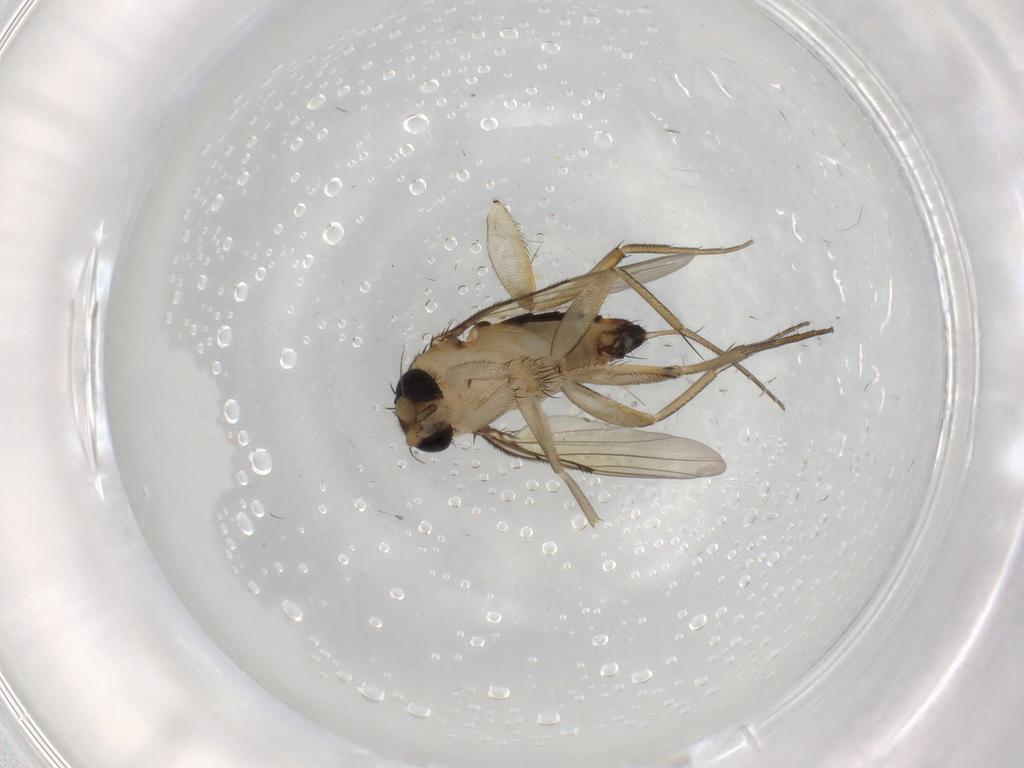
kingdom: Animalia
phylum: Arthropoda
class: Insecta
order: Diptera
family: Phoridae
